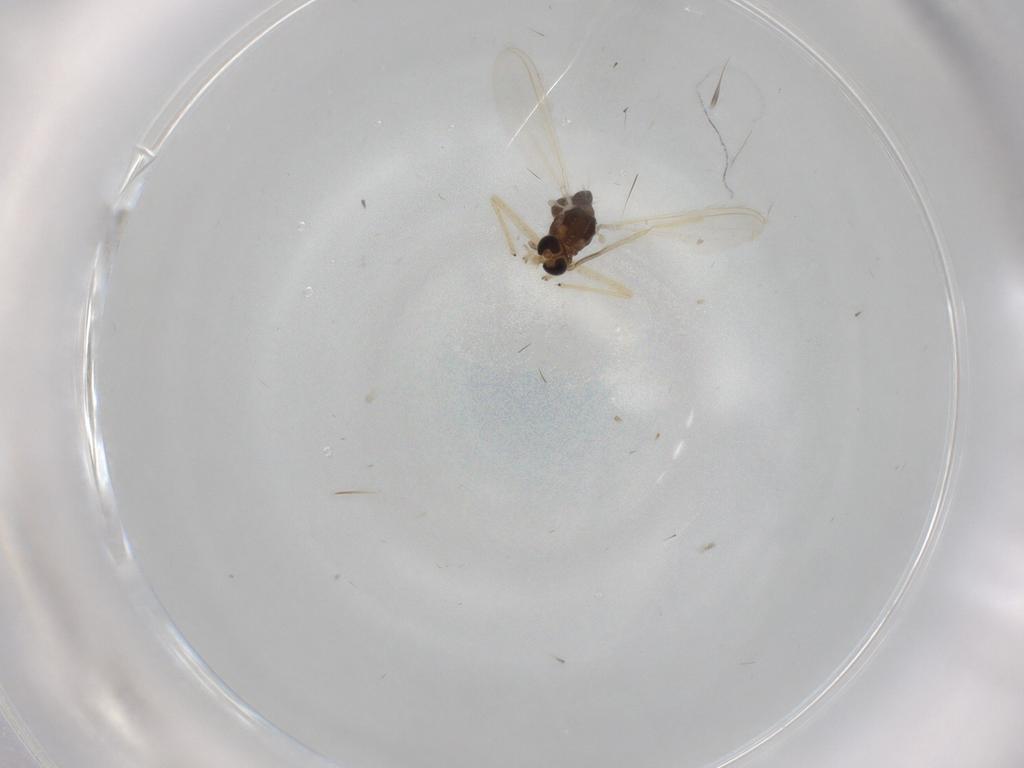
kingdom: Animalia
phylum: Arthropoda
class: Insecta
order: Diptera
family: Chironomidae
